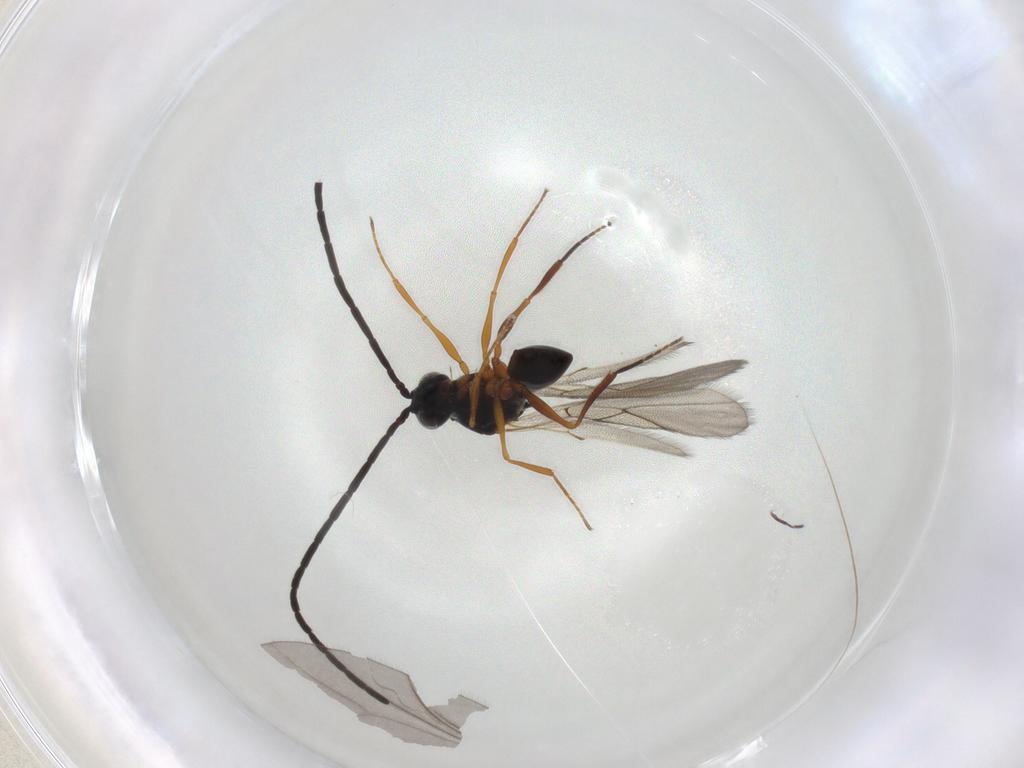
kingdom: Animalia
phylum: Arthropoda
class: Insecta
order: Hymenoptera
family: Figitidae
